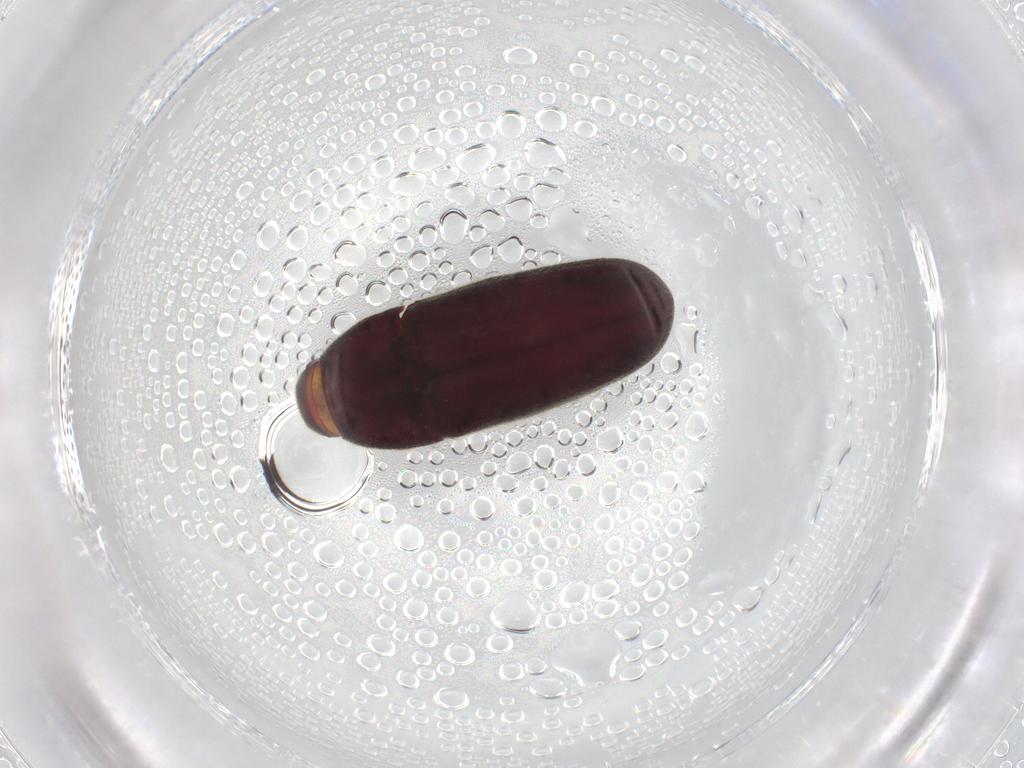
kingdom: Animalia
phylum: Arthropoda
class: Insecta
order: Coleoptera
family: Throscidae
